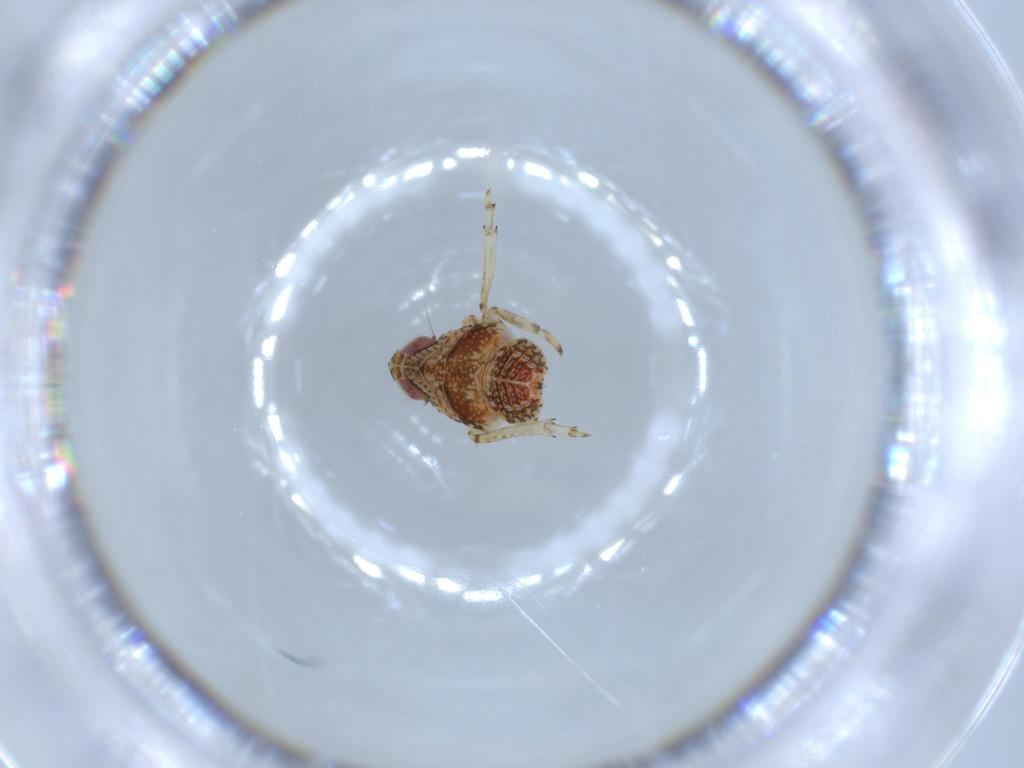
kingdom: Animalia
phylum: Arthropoda
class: Insecta
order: Hemiptera
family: Issidae
